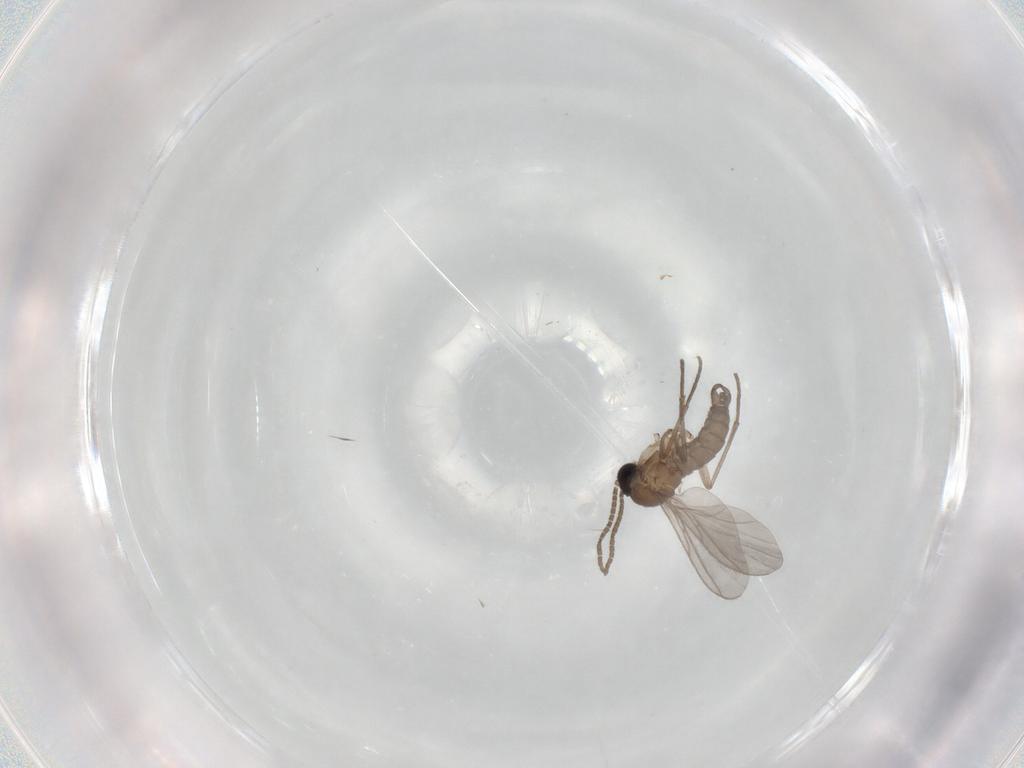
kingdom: Animalia
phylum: Arthropoda
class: Insecta
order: Diptera
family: Sciaridae
